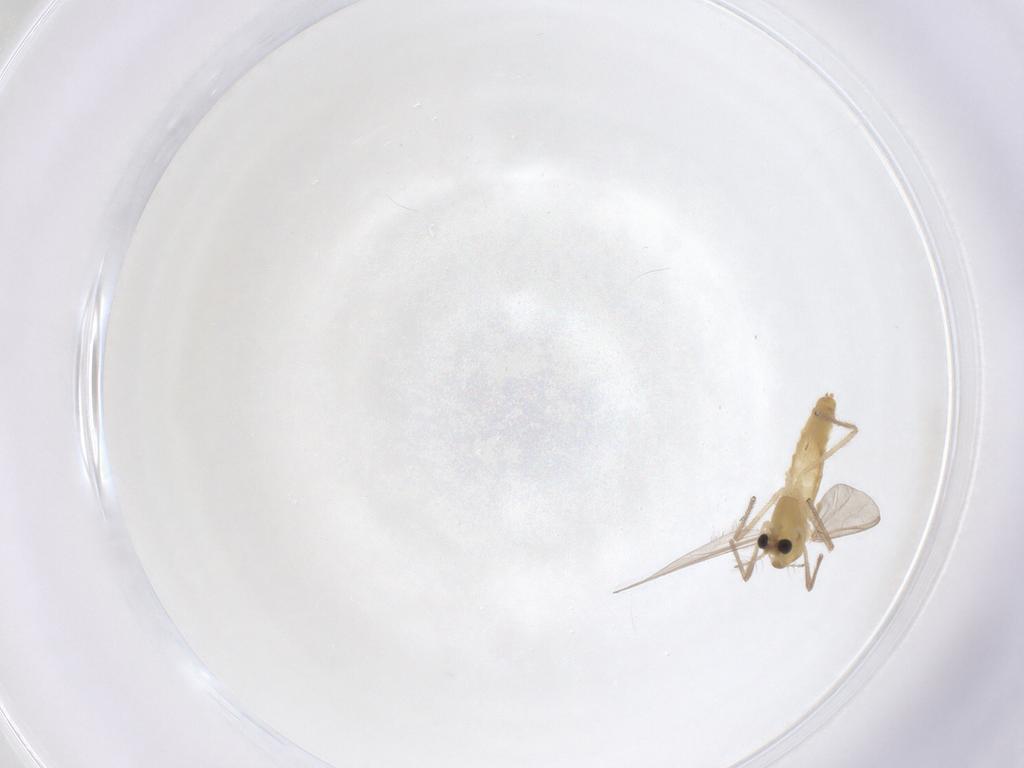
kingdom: Animalia
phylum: Arthropoda
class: Insecta
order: Diptera
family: Chironomidae
